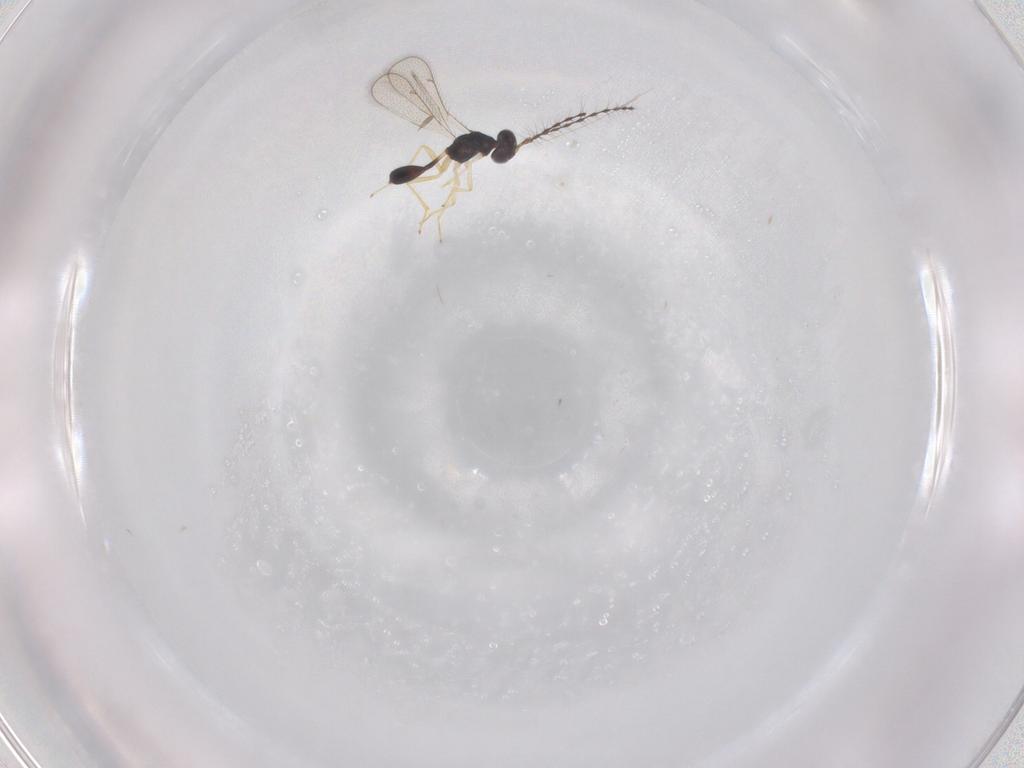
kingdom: Animalia
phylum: Arthropoda
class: Insecta
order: Hymenoptera
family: Diparidae
